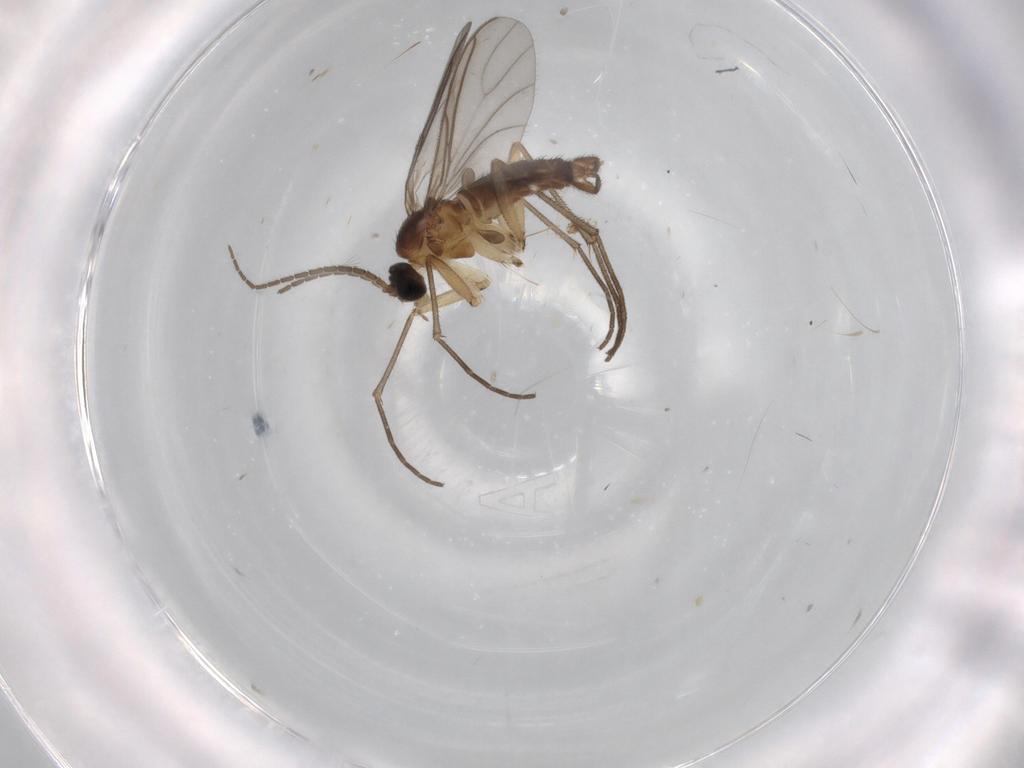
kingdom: Animalia
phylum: Arthropoda
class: Insecta
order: Diptera
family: Sciaridae
